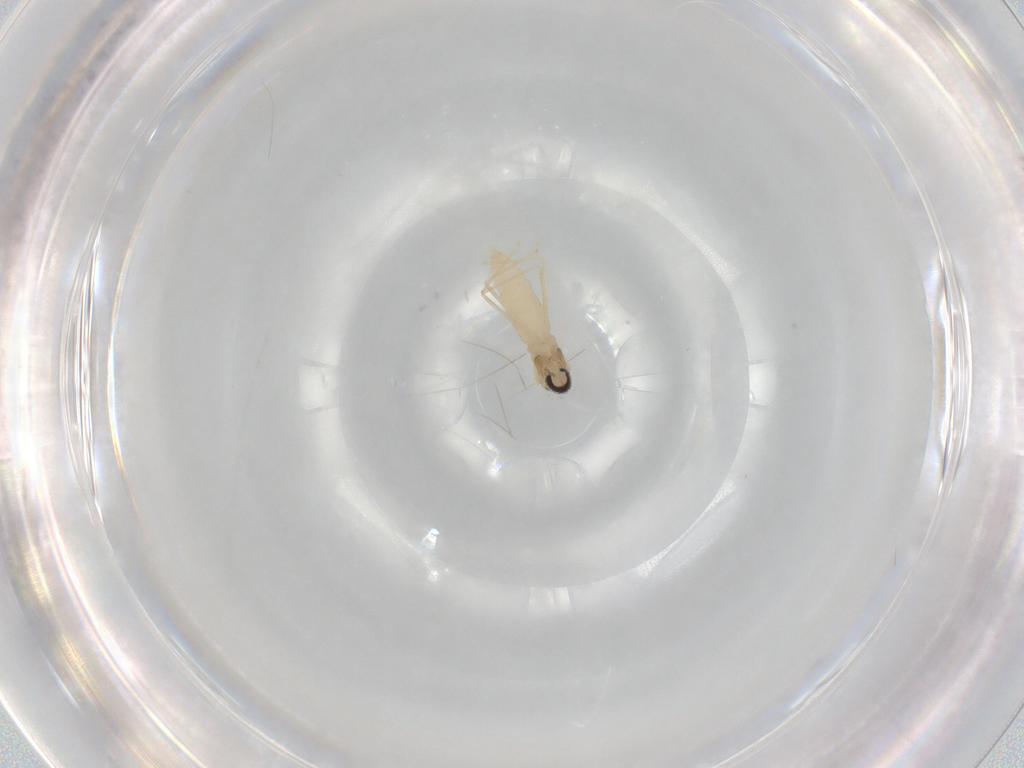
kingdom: Animalia
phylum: Arthropoda
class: Insecta
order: Diptera
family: Cecidomyiidae
